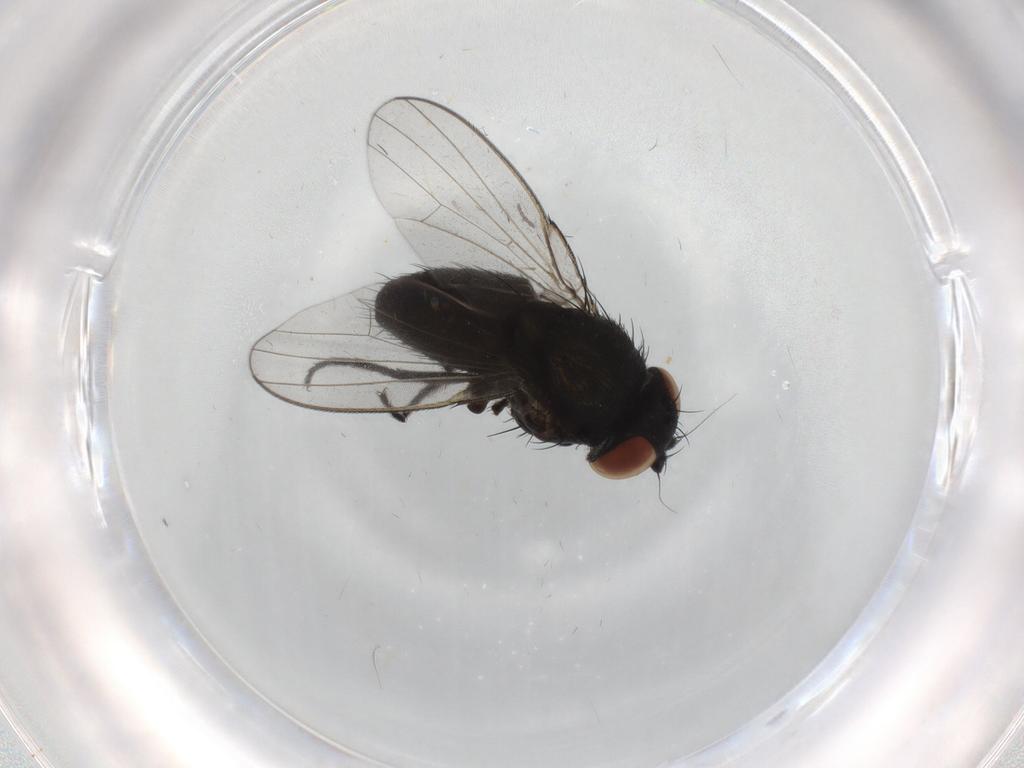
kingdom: Animalia
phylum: Arthropoda
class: Insecta
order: Diptera
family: Milichiidae
